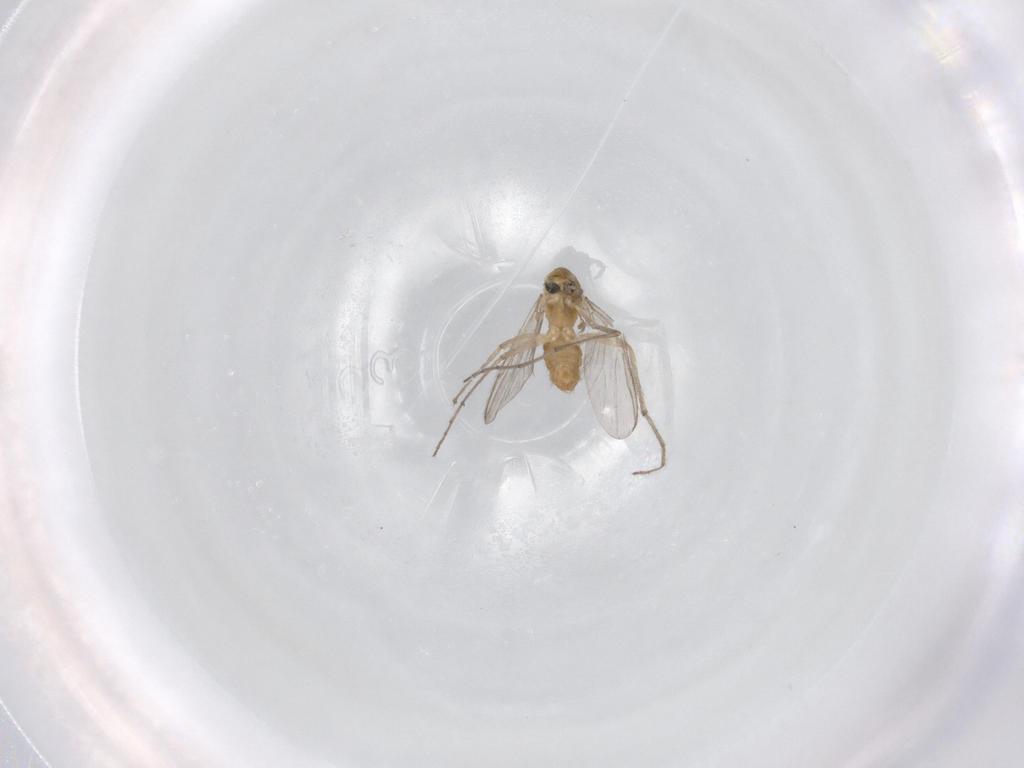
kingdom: Animalia
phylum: Arthropoda
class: Insecta
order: Diptera
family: Chironomidae
